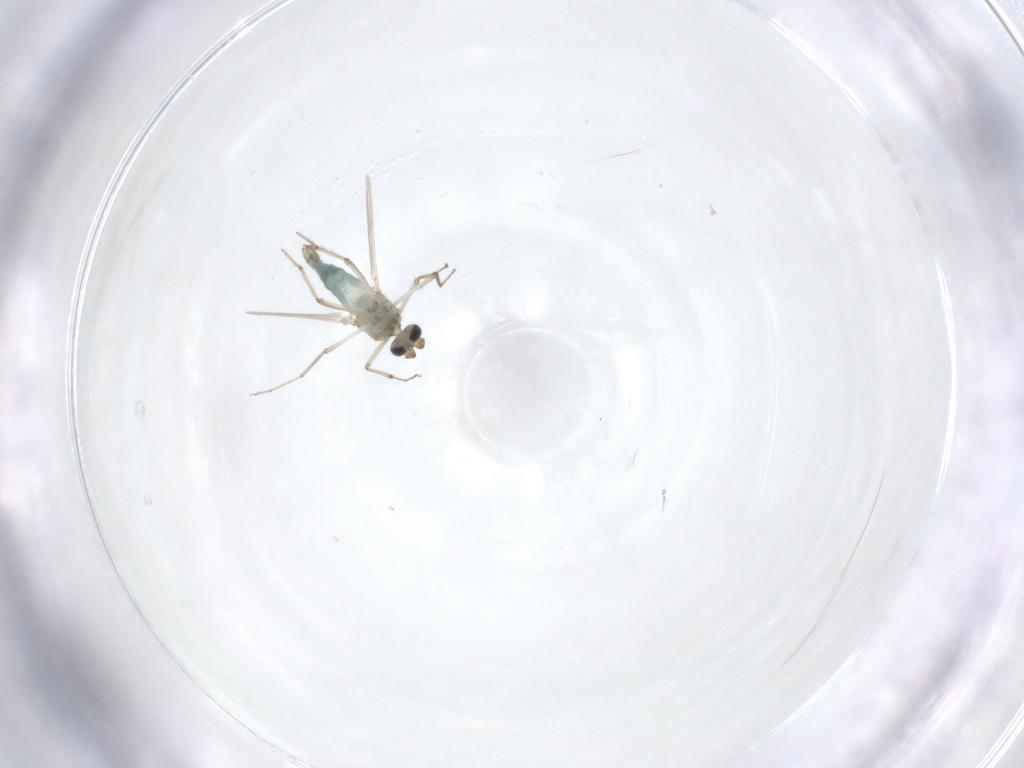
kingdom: Animalia
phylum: Arthropoda
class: Insecta
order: Diptera
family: Ceratopogonidae
